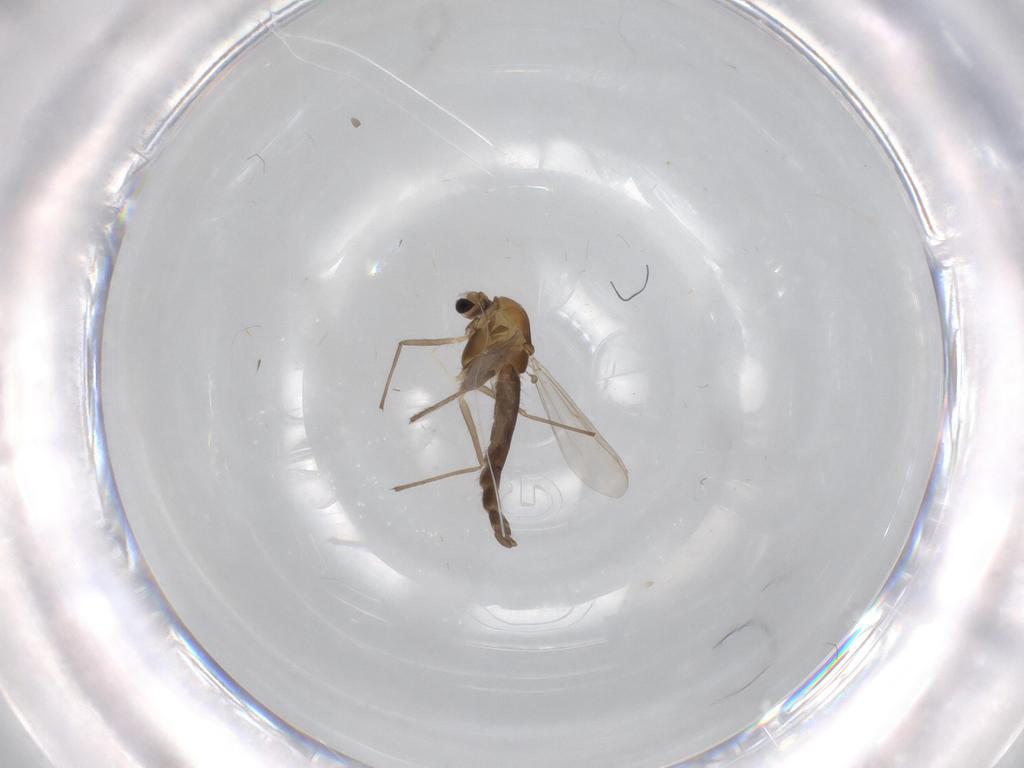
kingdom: Animalia
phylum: Arthropoda
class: Insecta
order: Diptera
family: Chironomidae
